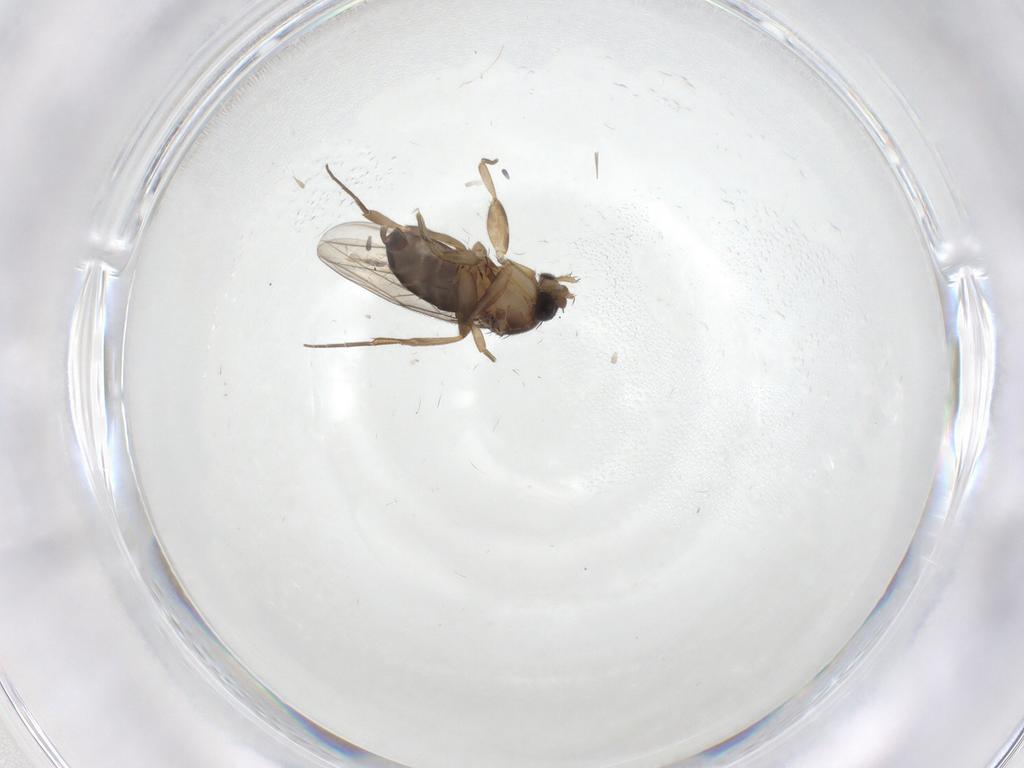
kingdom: Animalia
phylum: Arthropoda
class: Insecta
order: Diptera
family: Phoridae
